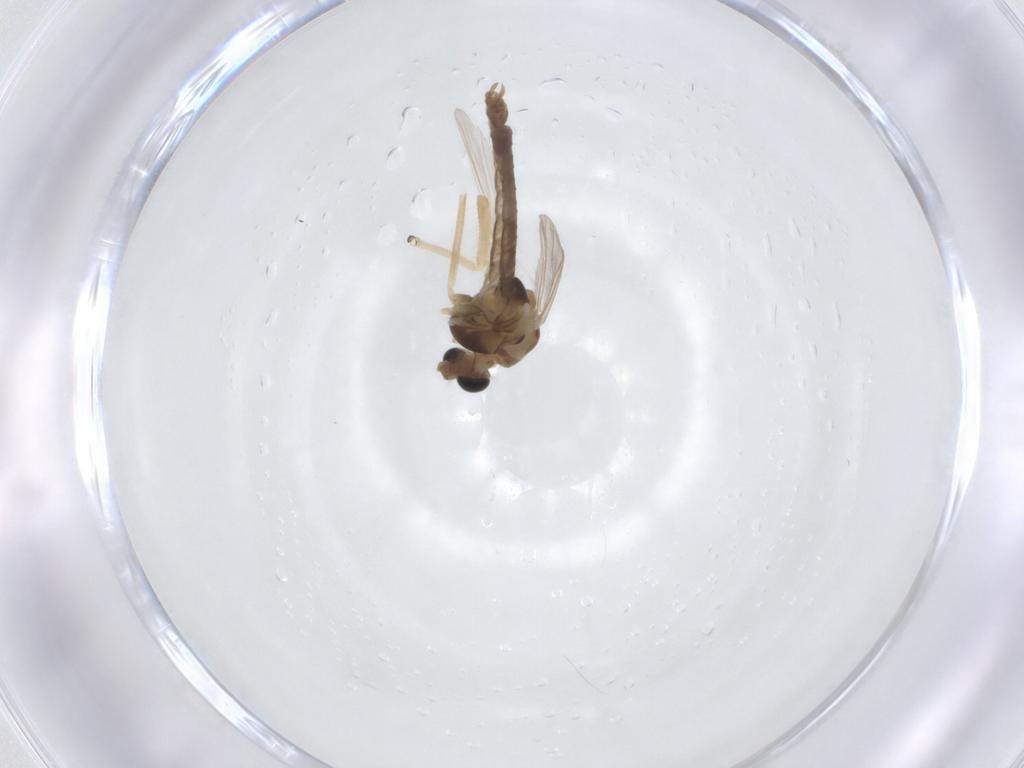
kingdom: Animalia
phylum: Arthropoda
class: Insecta
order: Diptera
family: Chironomidae
